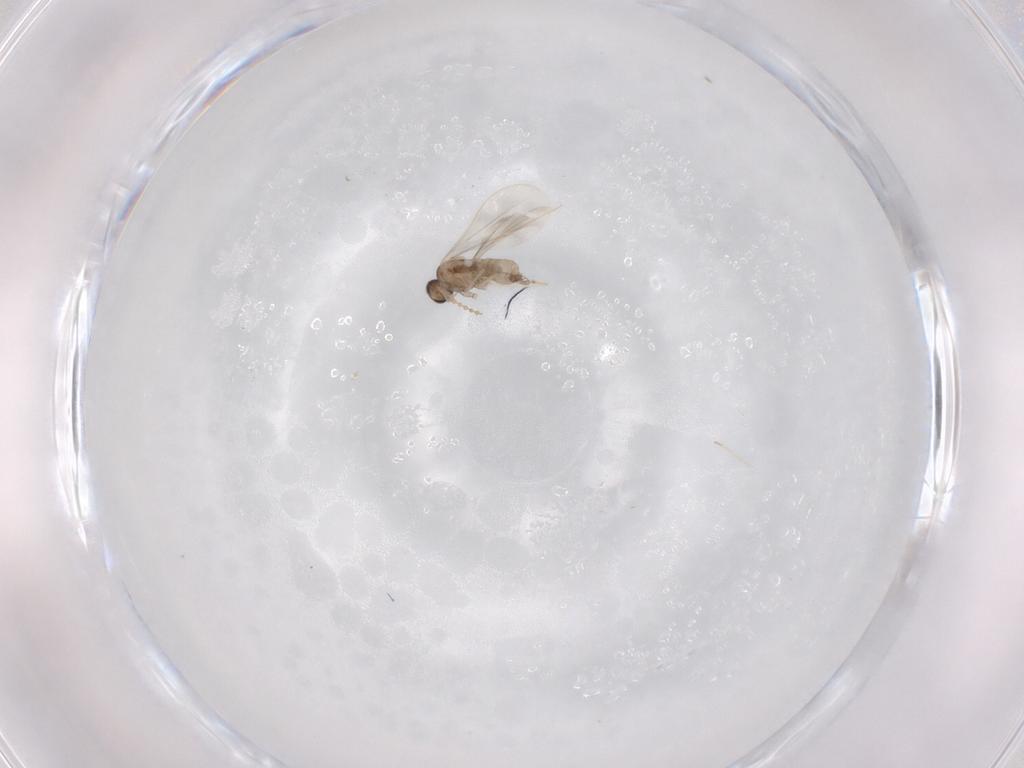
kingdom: Animalia
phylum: Arthropoda
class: Insecta
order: Diptera
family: Cecidomyiidae
